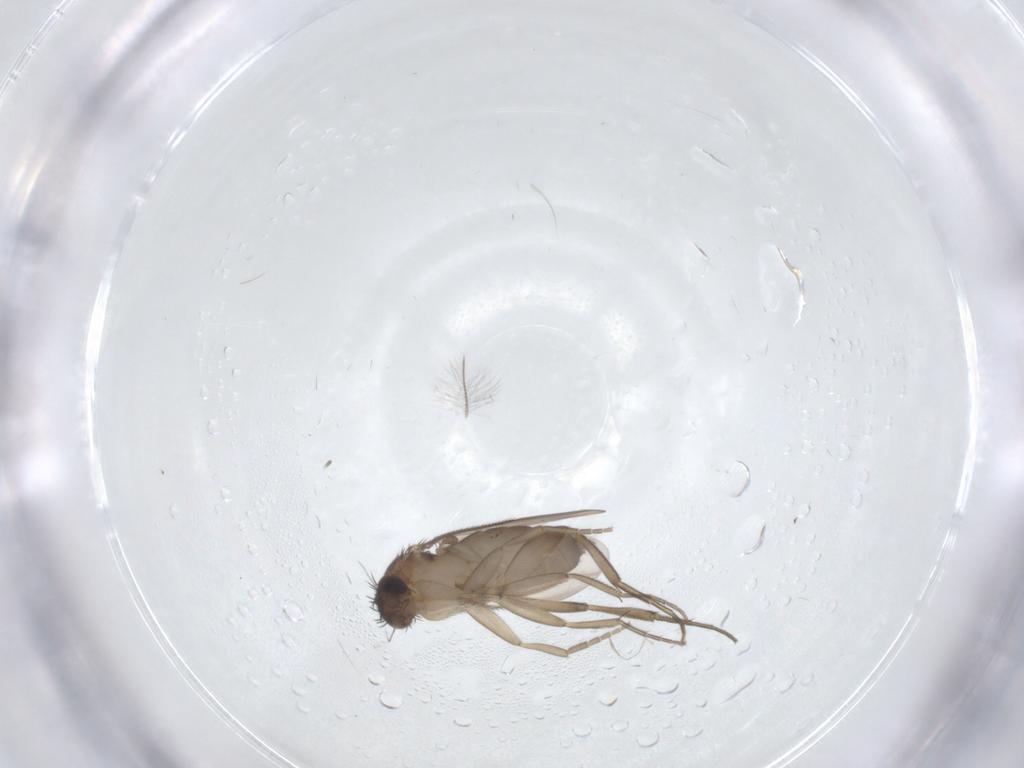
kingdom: Animalia
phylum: Arthropoda
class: Insecta
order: Diptera
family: Phoridae
